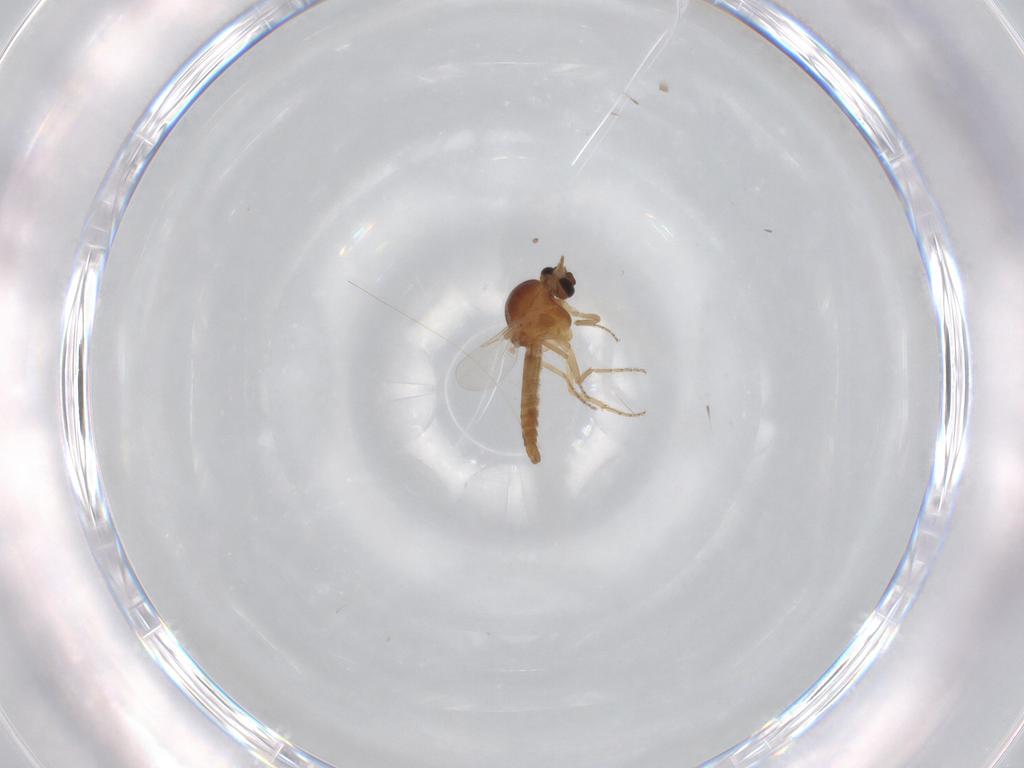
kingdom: Animalia
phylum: Arthropoda
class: Insecta
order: Diptera
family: Ceratopogonidae
